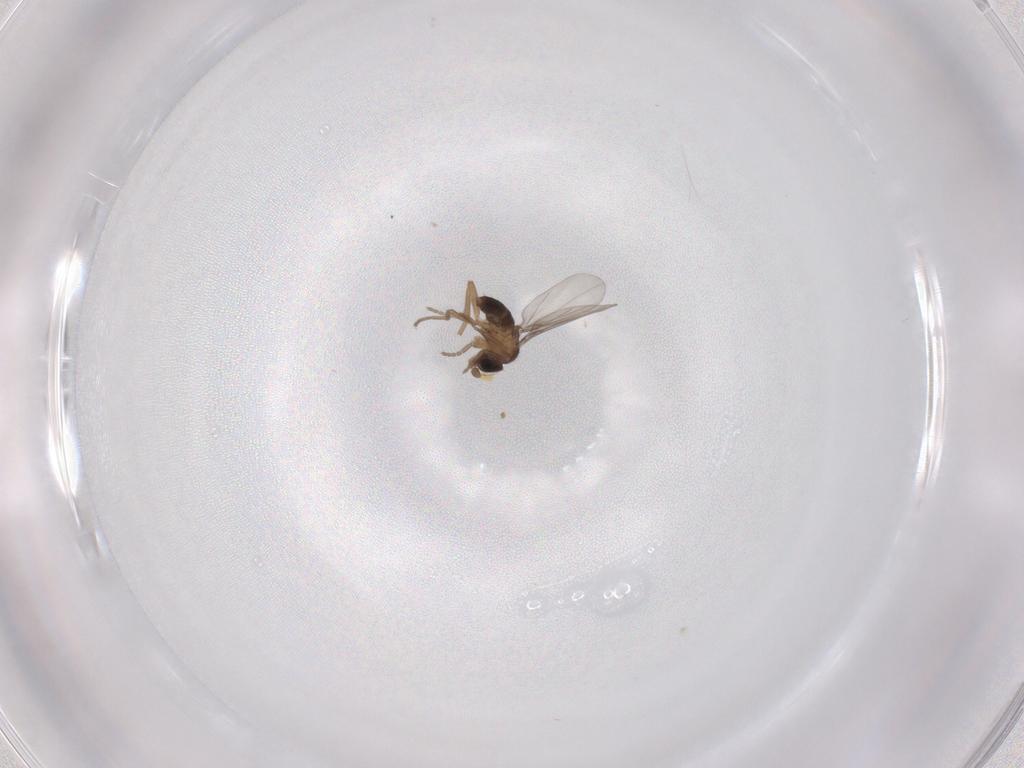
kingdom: Animalia
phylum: Arthropoda
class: Insecta
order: Diptera
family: Phoridae
